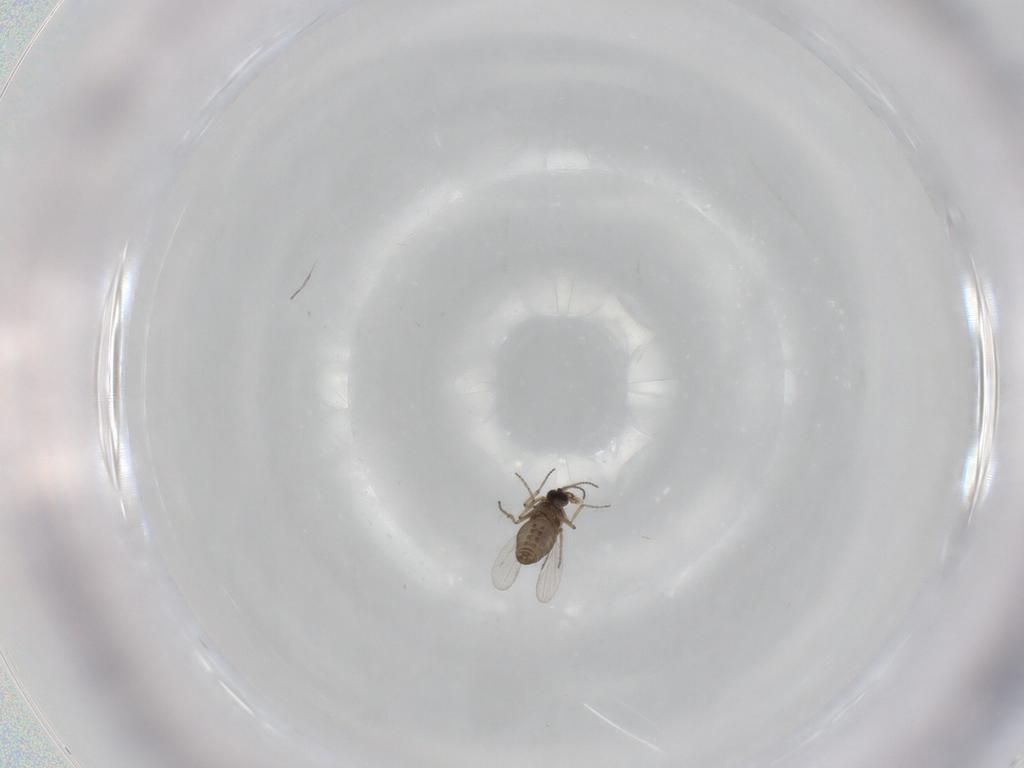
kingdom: Animalia
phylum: Arthropoda
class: Insecta
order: Diptera
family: Ceratopogonidae
